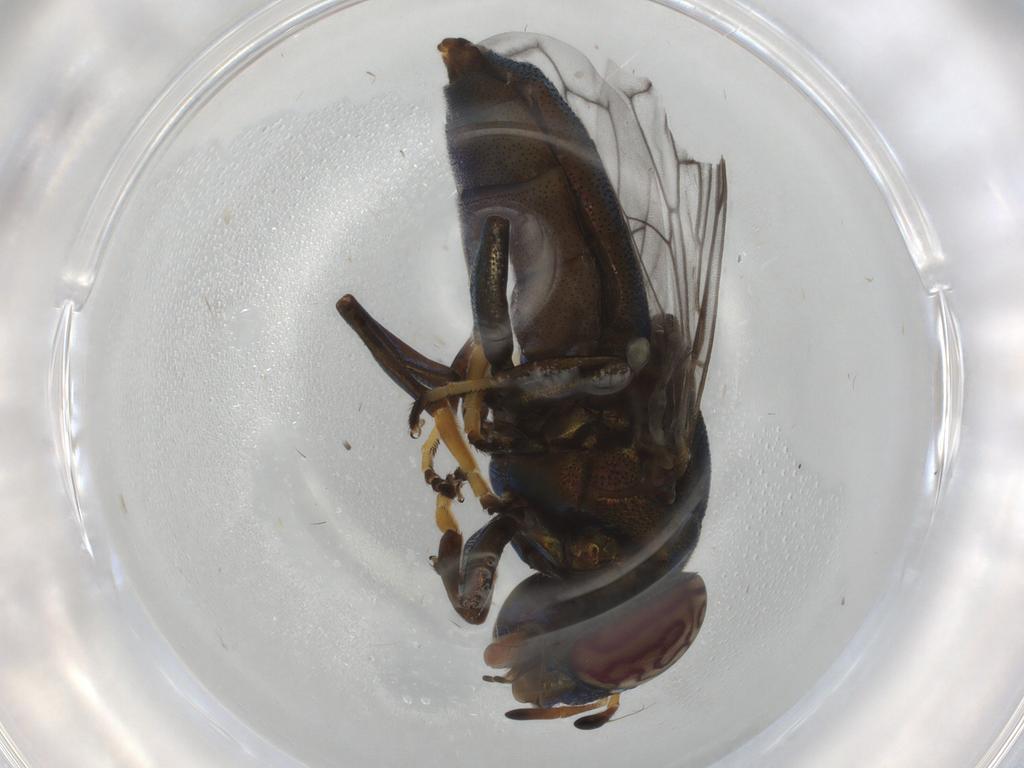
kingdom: Animalia
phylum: Arthropoda
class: Insecta
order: Diptera
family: Syrphidae
